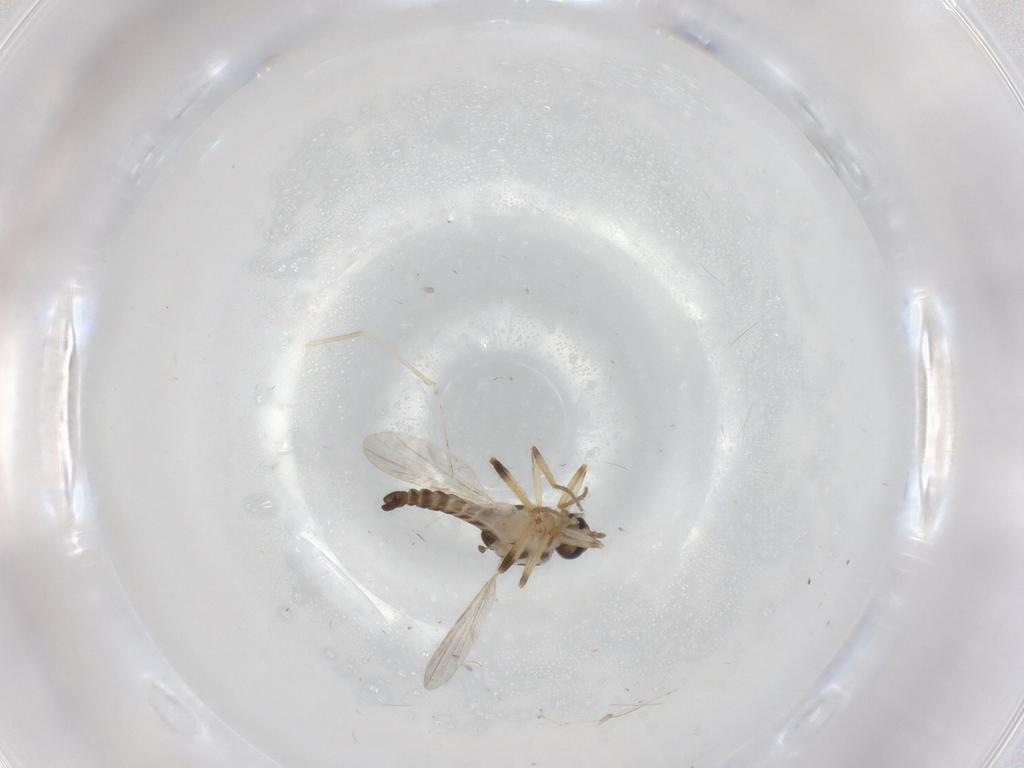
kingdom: Animalia
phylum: Arthropoda
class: Insecta
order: Diptera
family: Ceratopogonidae
